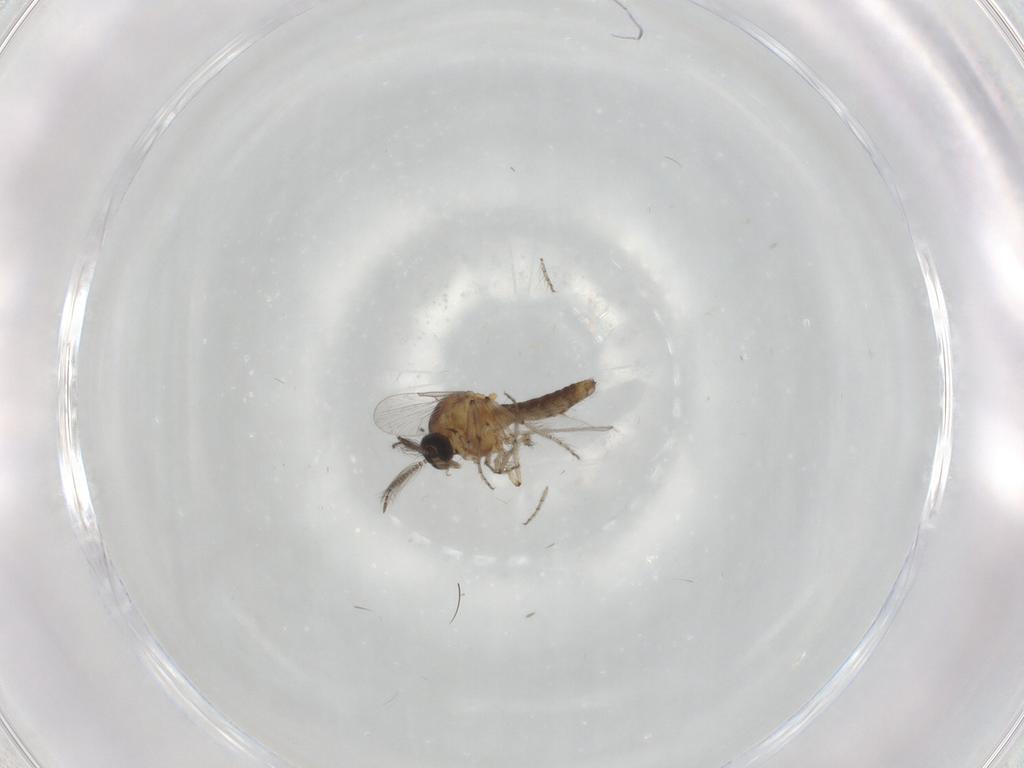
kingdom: Animalia
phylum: Arthropoda
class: Insecta
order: Diptera
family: Ceratopogonidae
